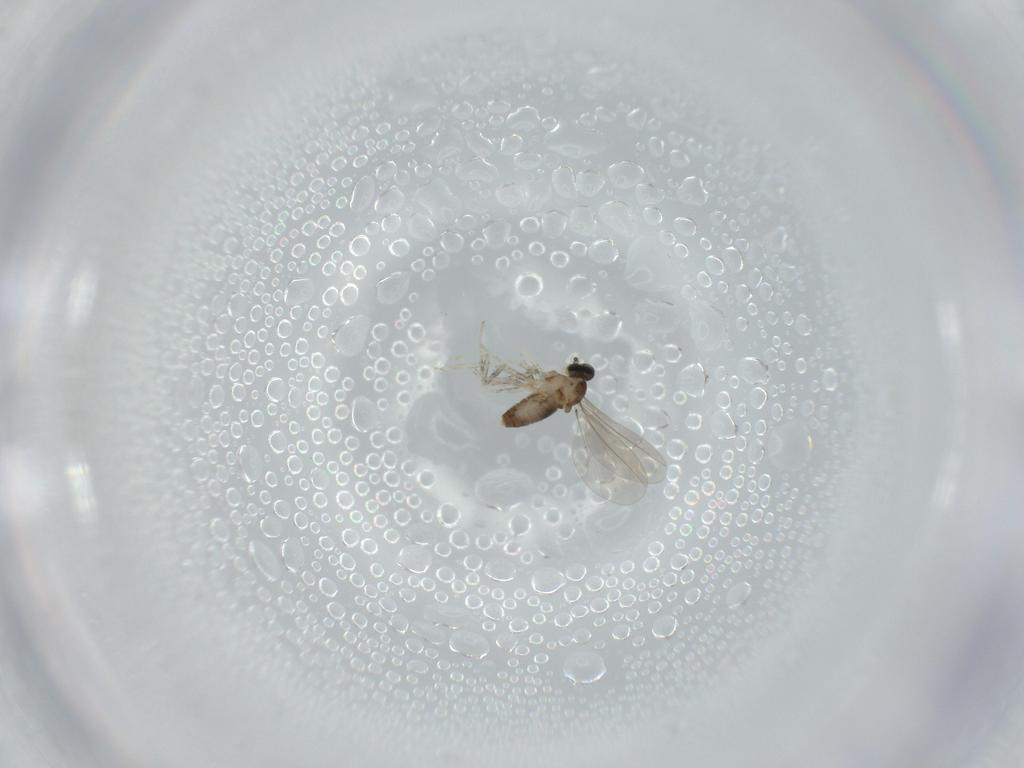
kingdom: Animalia
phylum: Arthropoda
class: Insecta
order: Diptera
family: Cecidomyiidae
